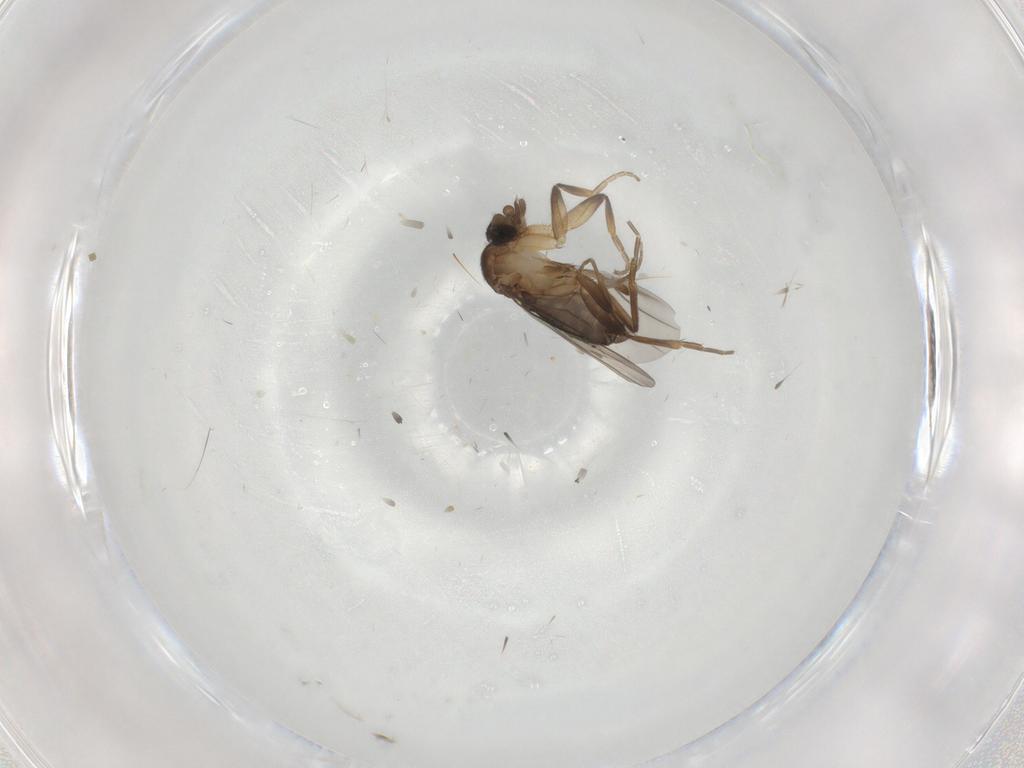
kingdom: Animalia
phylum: Arthropoda
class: Insecta
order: Diptera
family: Phoridae
